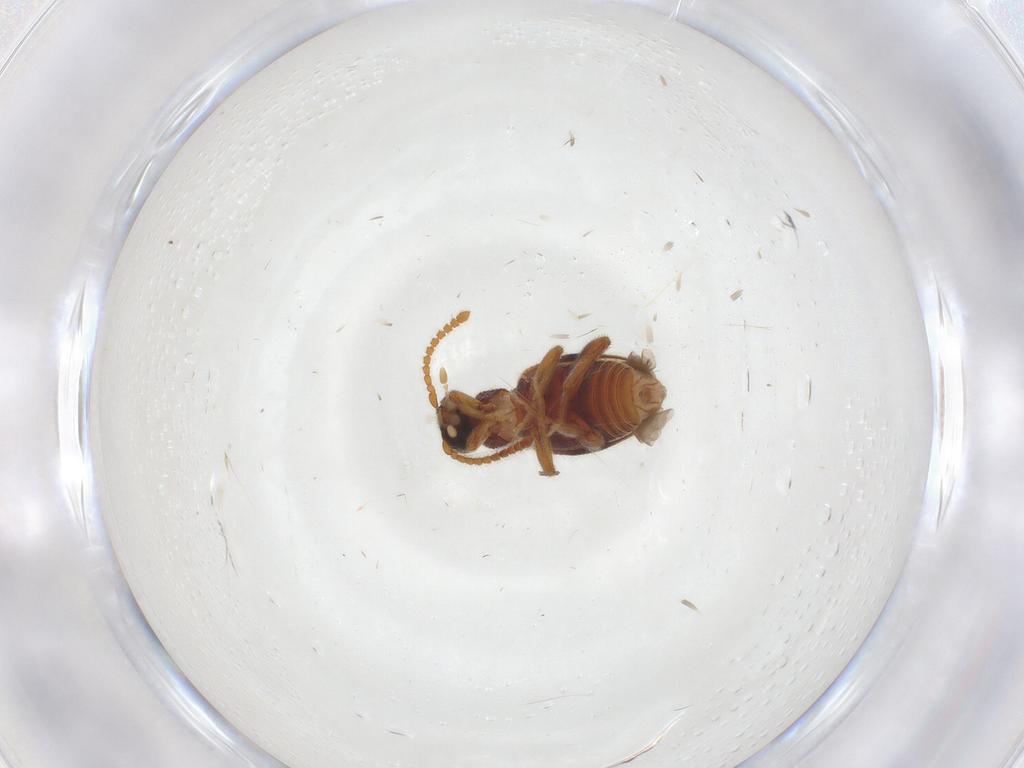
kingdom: Animalia
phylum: Arthropoda
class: Insecta
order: Coleoptera
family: Aderidae
